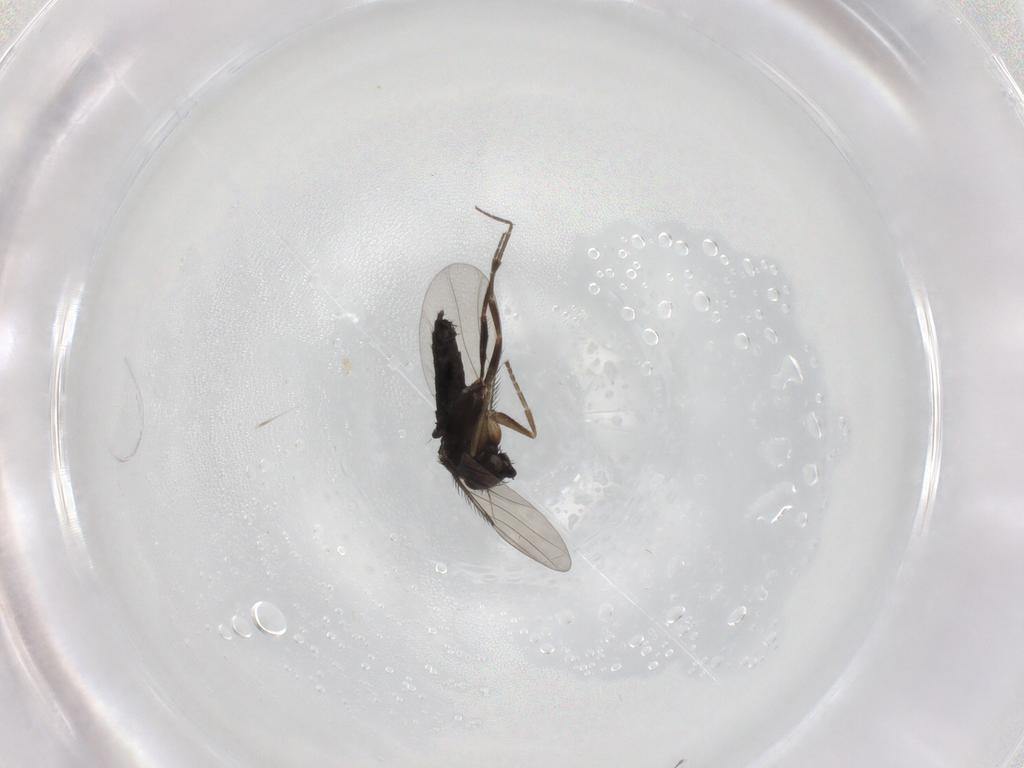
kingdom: Animalia
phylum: Arthropoda
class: Insecta
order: Diptera
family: Phoridae
